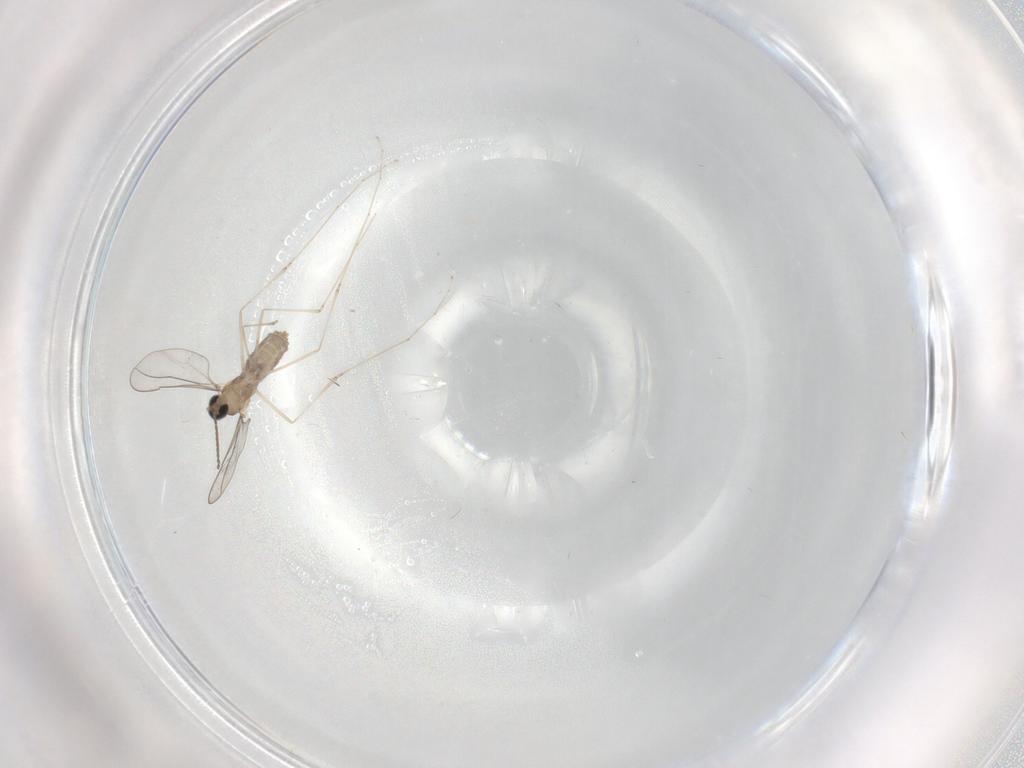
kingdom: Animalia
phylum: Arthropoda
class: Insecta
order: Diptera
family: Cecidomyiidae
